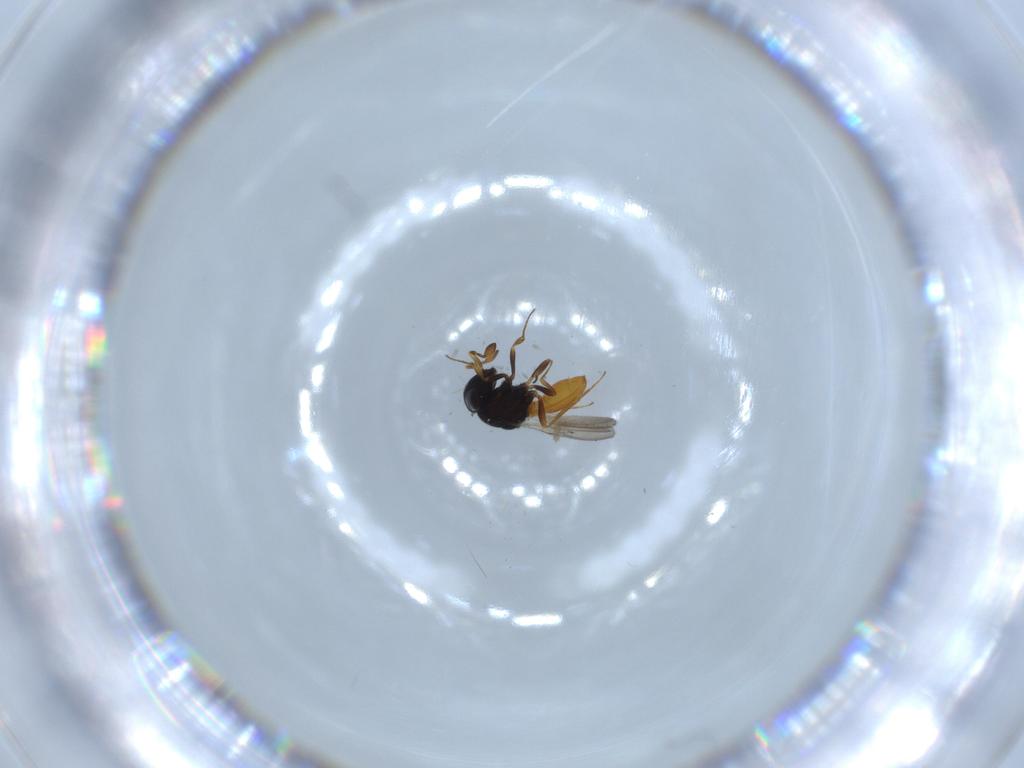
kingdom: Animalia
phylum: Arthropoda
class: Insecta
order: Hymenoptera
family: Scelionidae
